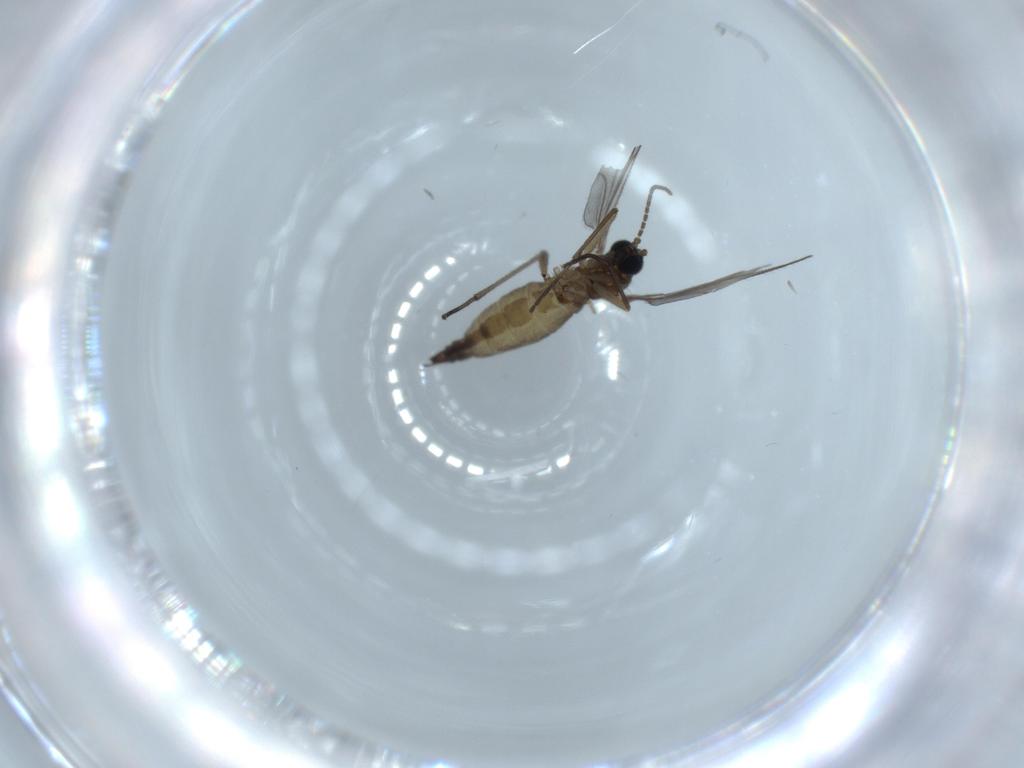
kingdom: Animalia
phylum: Arthropoda
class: Insecta
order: Diptera
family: Sciaridae
